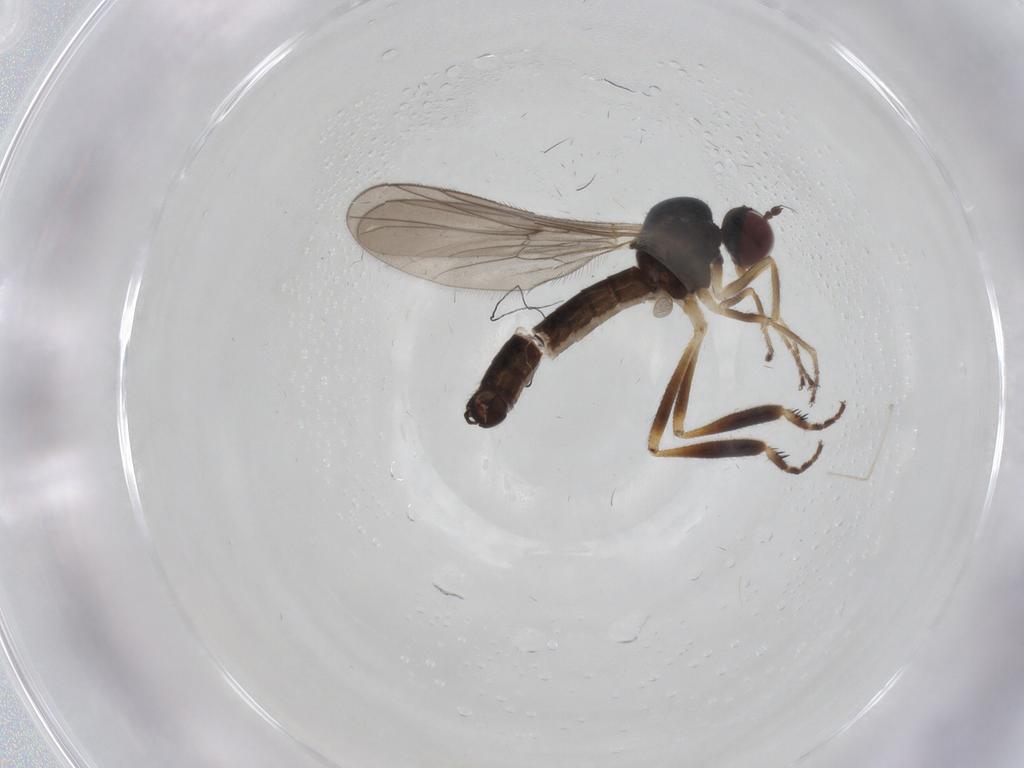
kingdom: Animalia
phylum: Arthropoda
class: Insecta
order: Diptera
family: Hybotidae
